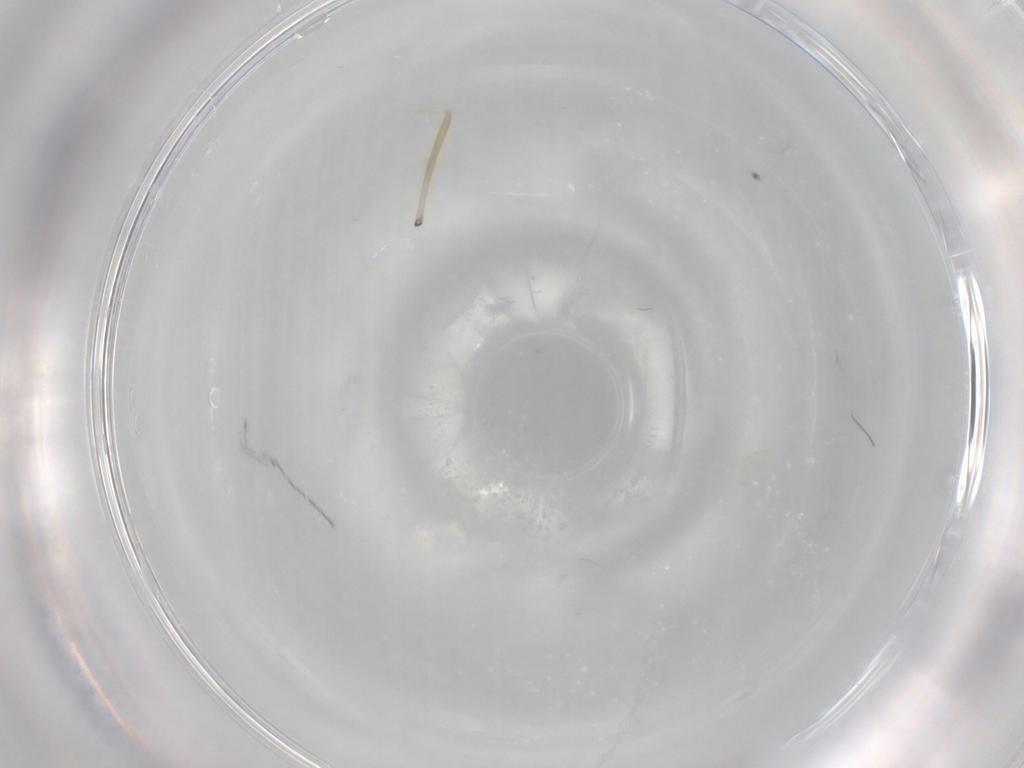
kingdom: Animalia
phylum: Arthropoda
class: Insecta
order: Diptera
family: Chironomidae
